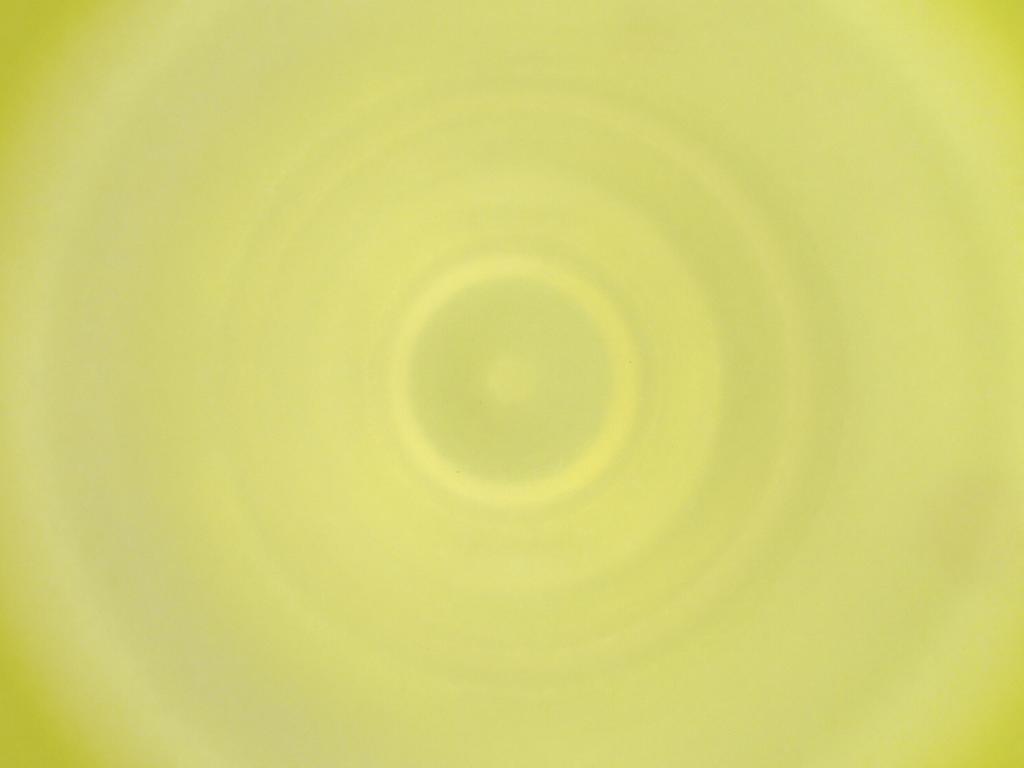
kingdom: Animalia
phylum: Arthropoda
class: Insecta
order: Diptera
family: Cecidomyiidae
